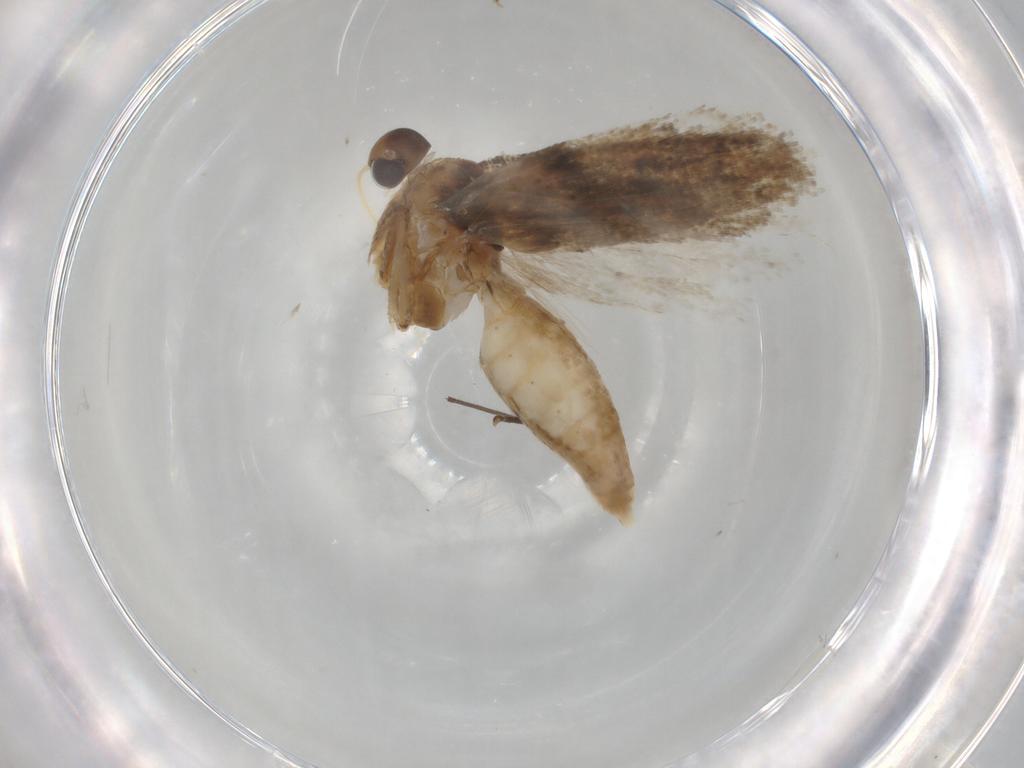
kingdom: Animalia
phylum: Arthropoda
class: Insecta
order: Lepidoptera
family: Gelechiidae
